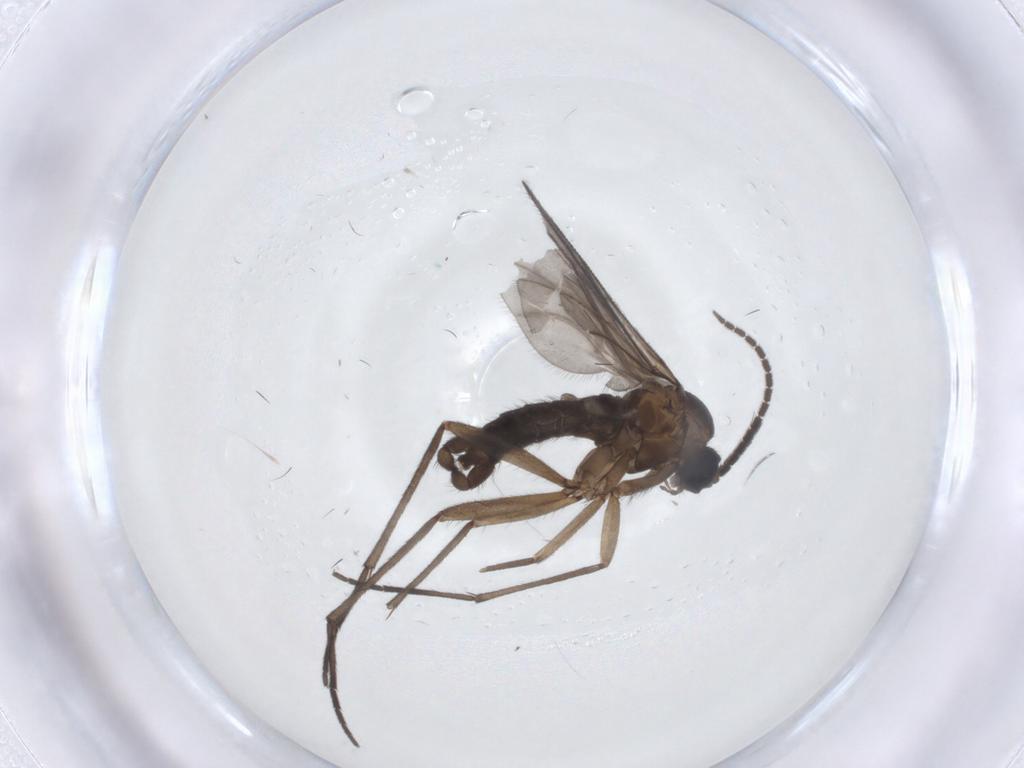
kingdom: Animalia
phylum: Arthropoda
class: Insecta
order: Diptera
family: Sciaridae
